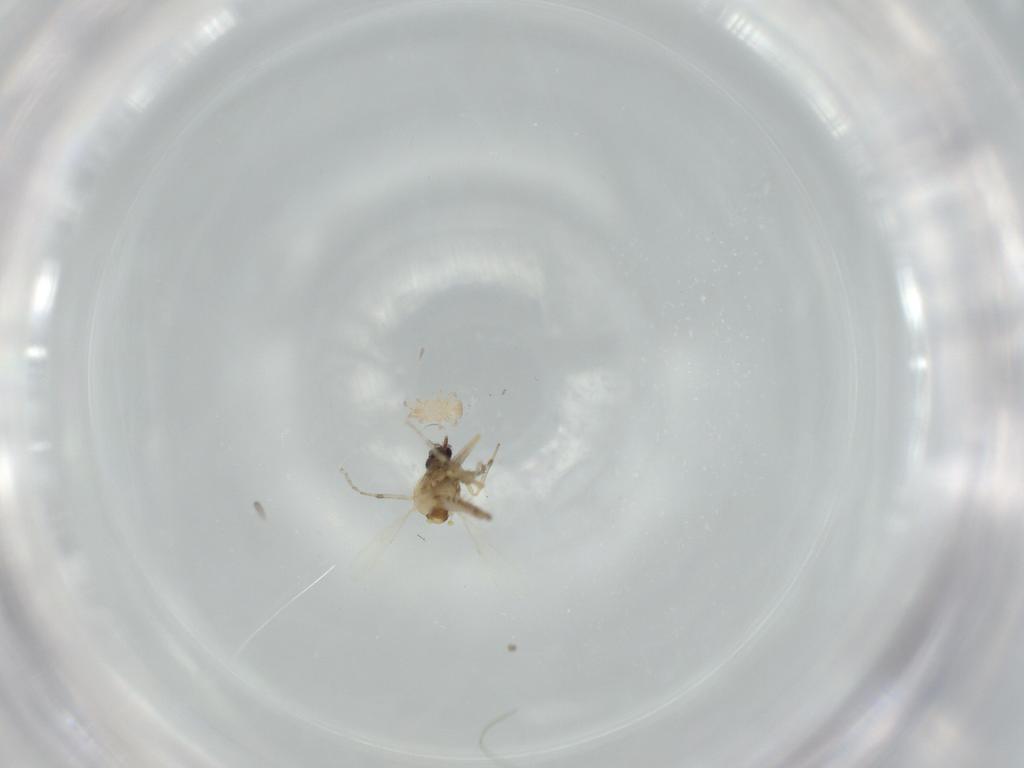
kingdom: Animalia
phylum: Arthropoda
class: Insecta
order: Diptera
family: Ceratopogonidae
